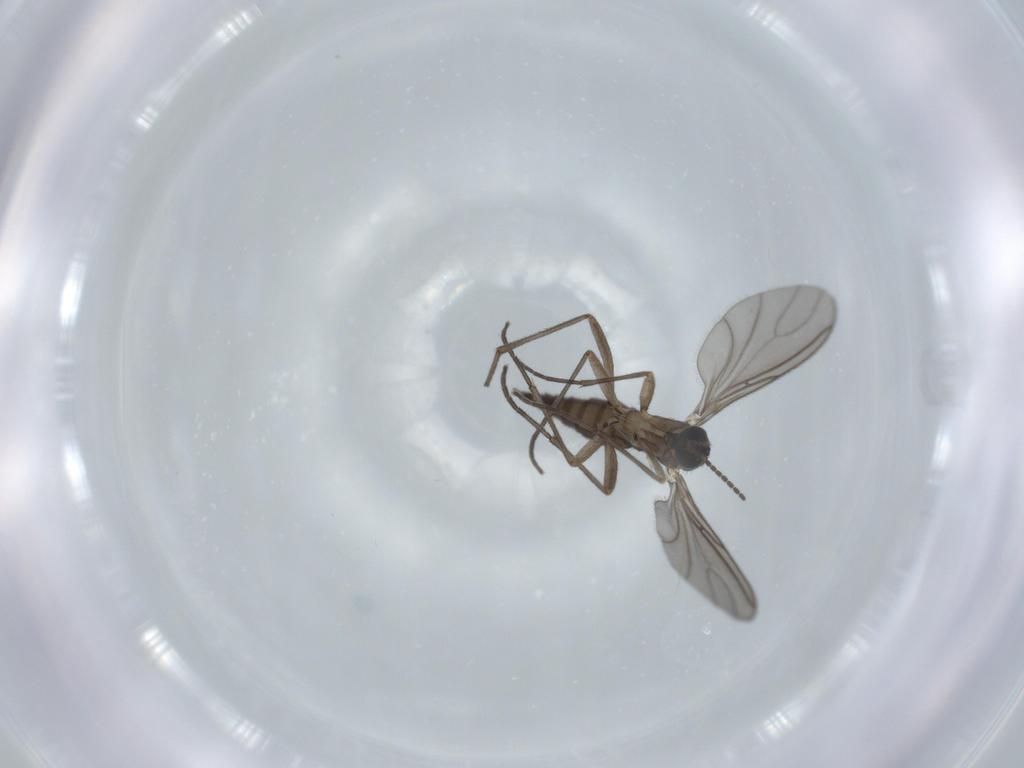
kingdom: Animalia
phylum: Arthropoda
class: Insecta
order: Diptera
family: Sciaridae
